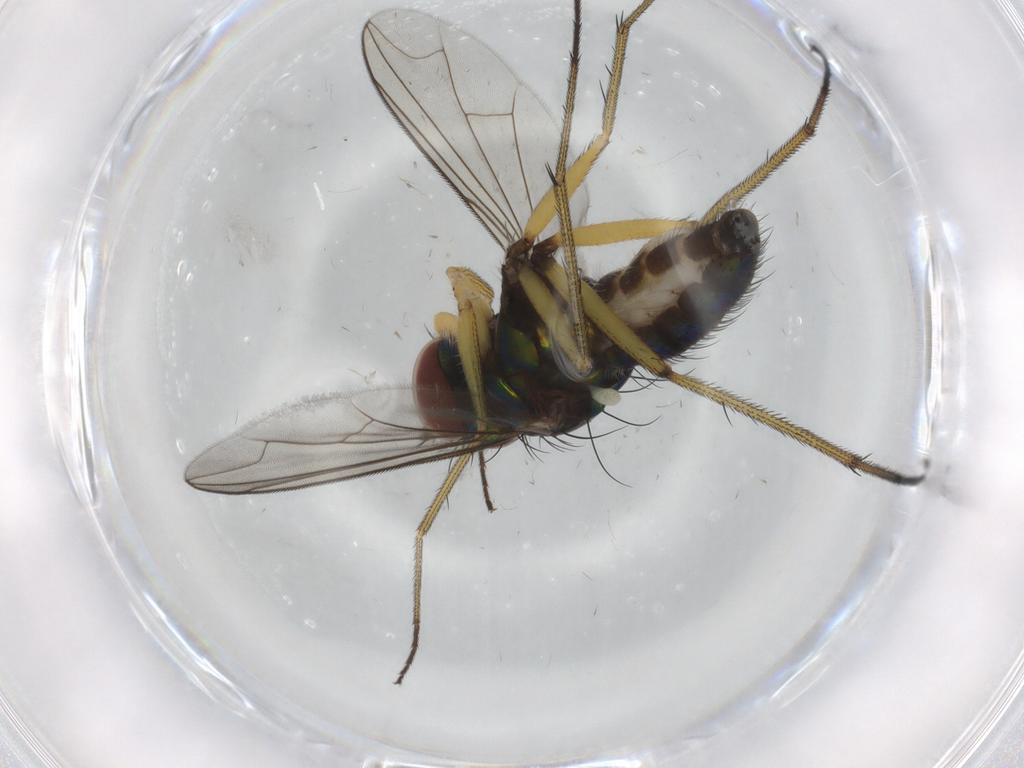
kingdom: Animalia
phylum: Arthropoda
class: Insecta
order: Diptera
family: Dolichopodidae
